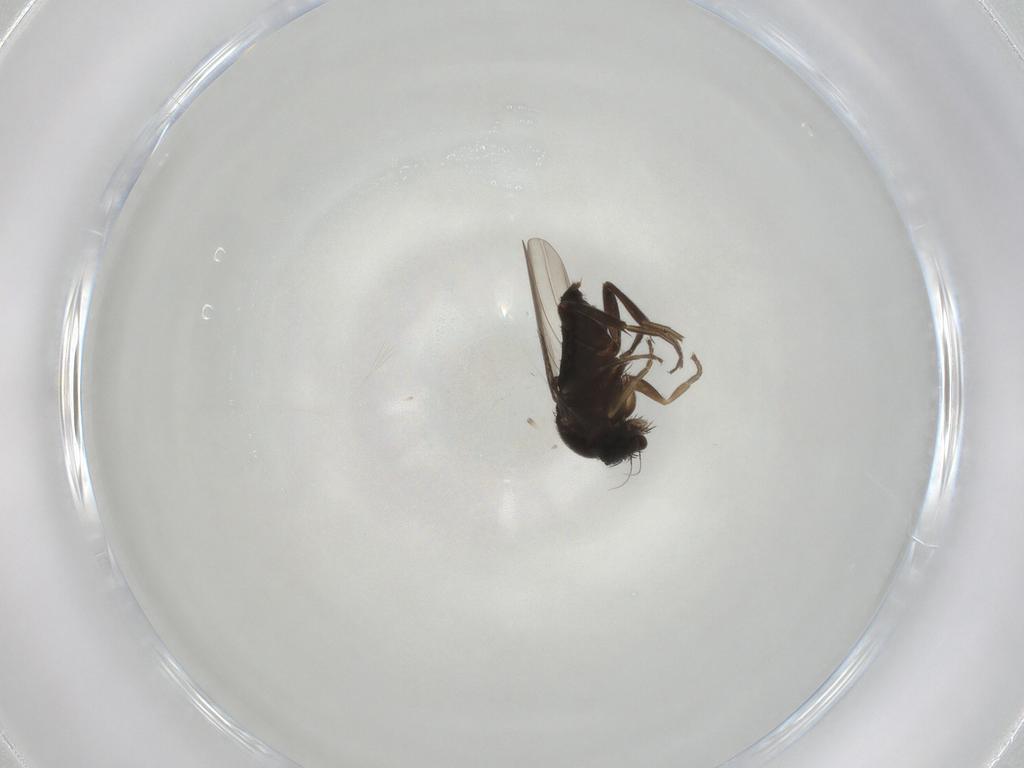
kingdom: Animalia
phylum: Arthropoda
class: Insecta
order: Diptera
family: Phoridae
